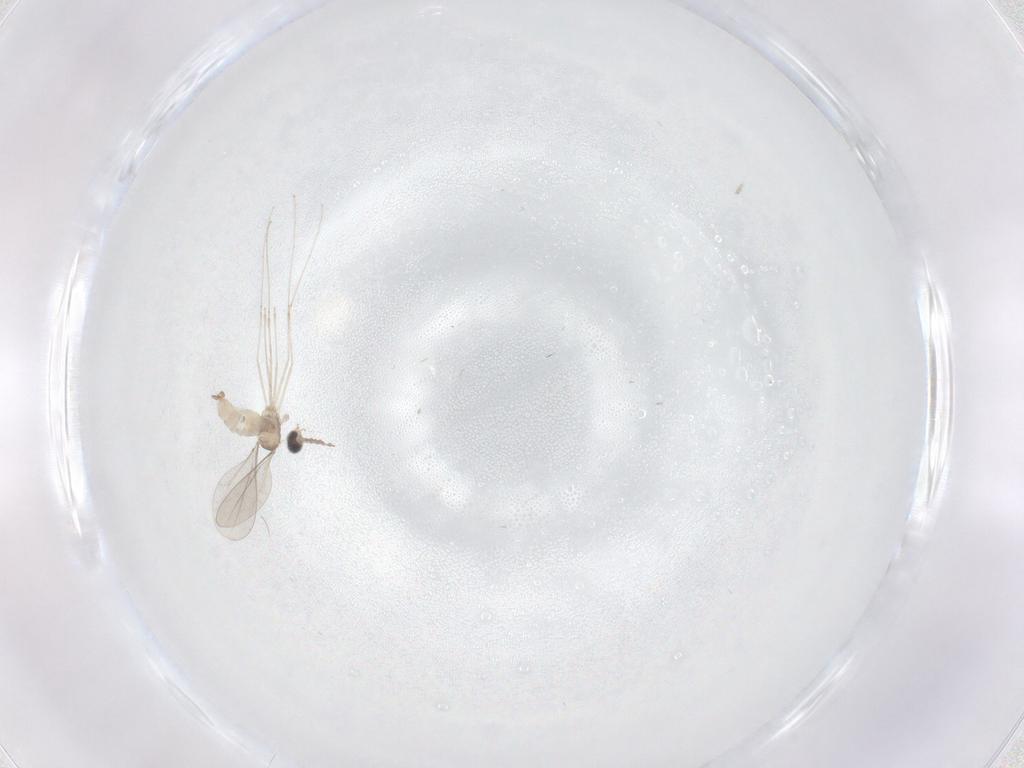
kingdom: Animalia
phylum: Arthropoda
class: Insecta
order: Diptera
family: Cecidomyiidae
